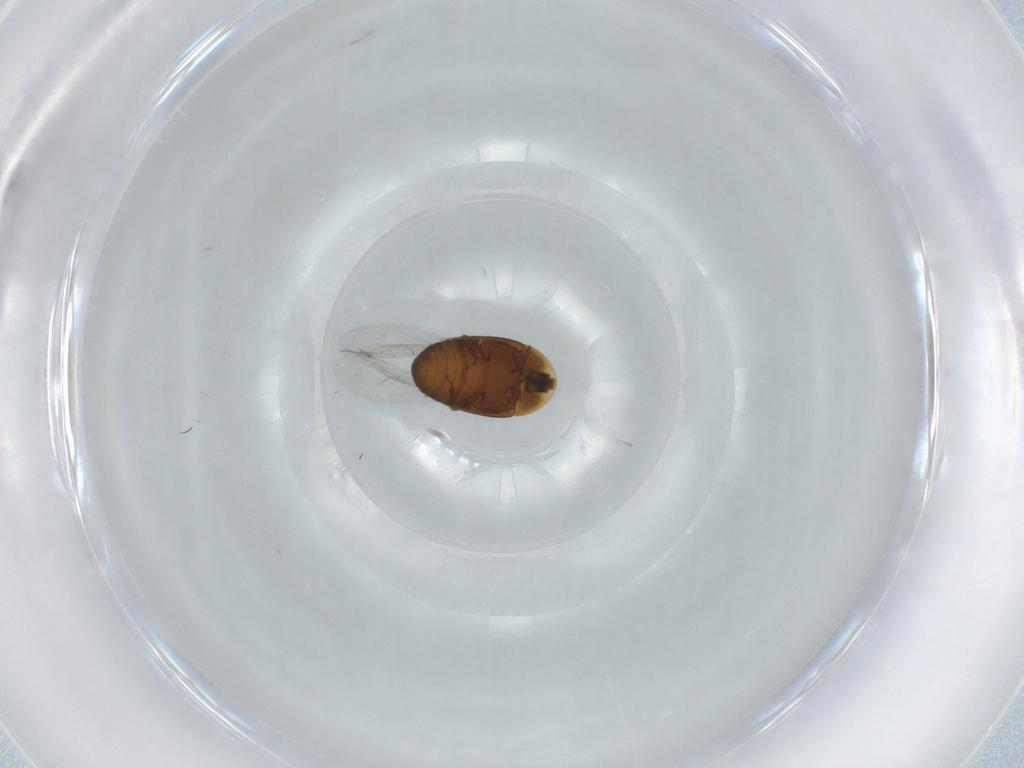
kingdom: Animalia
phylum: Arthropoda
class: Insecta
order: Coleoptera
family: Corylophidae
